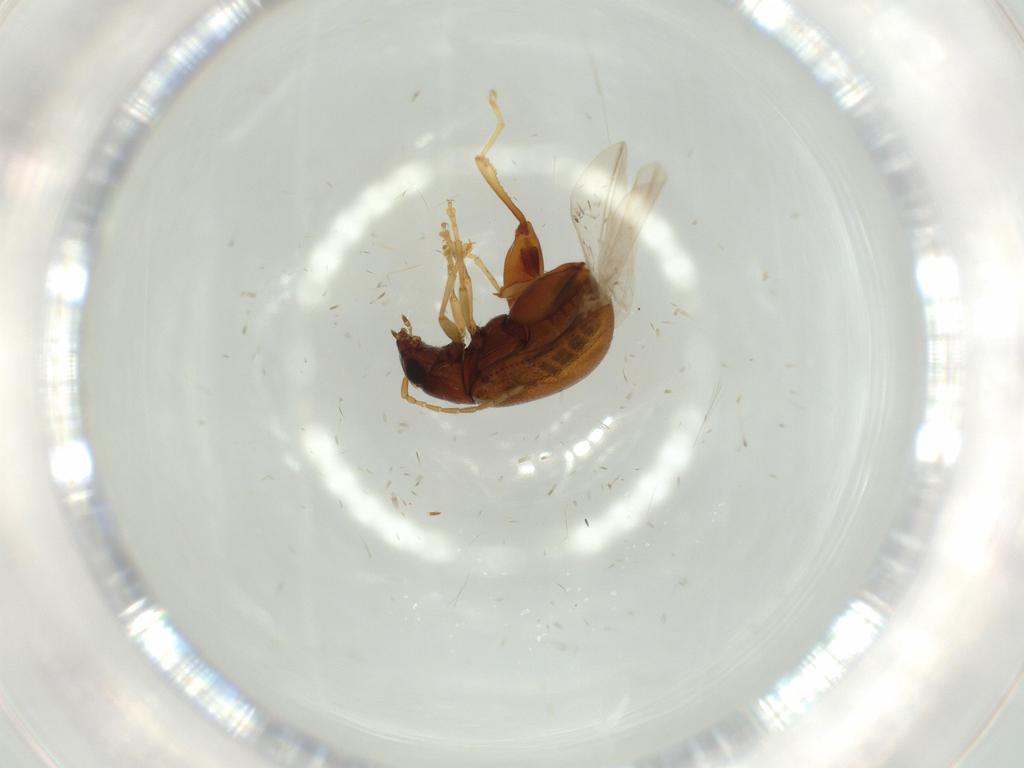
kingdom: Animalia
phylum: Arthropoda
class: Insecta
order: Coleoptera
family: Chrysomelidae
